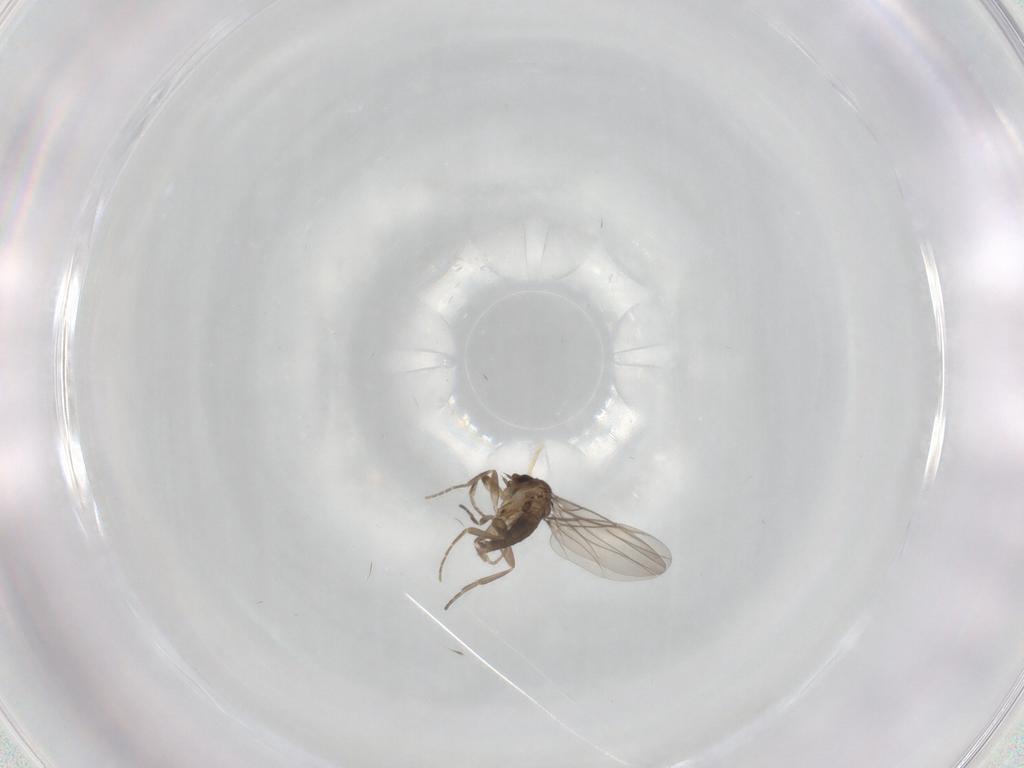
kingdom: Animalia
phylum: Arthropoda
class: Insecta
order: Diptera
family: Phoridae
